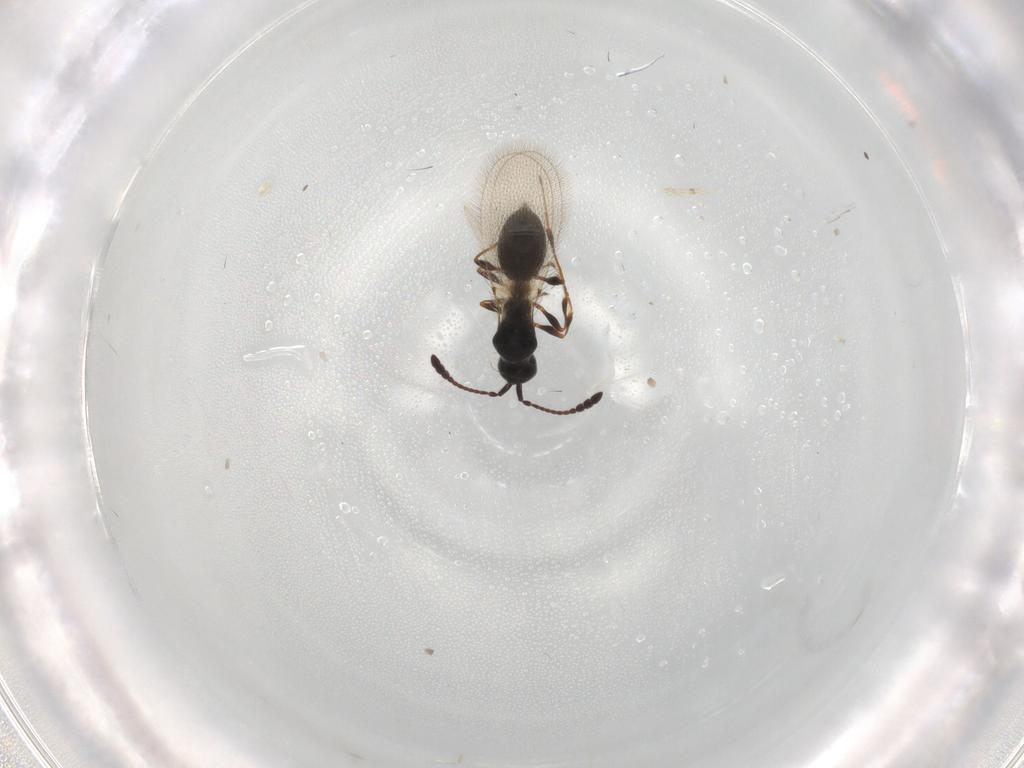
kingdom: Animalia
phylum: Arthropoda
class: Insecta
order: Hymenoptera
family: Diapriidae
